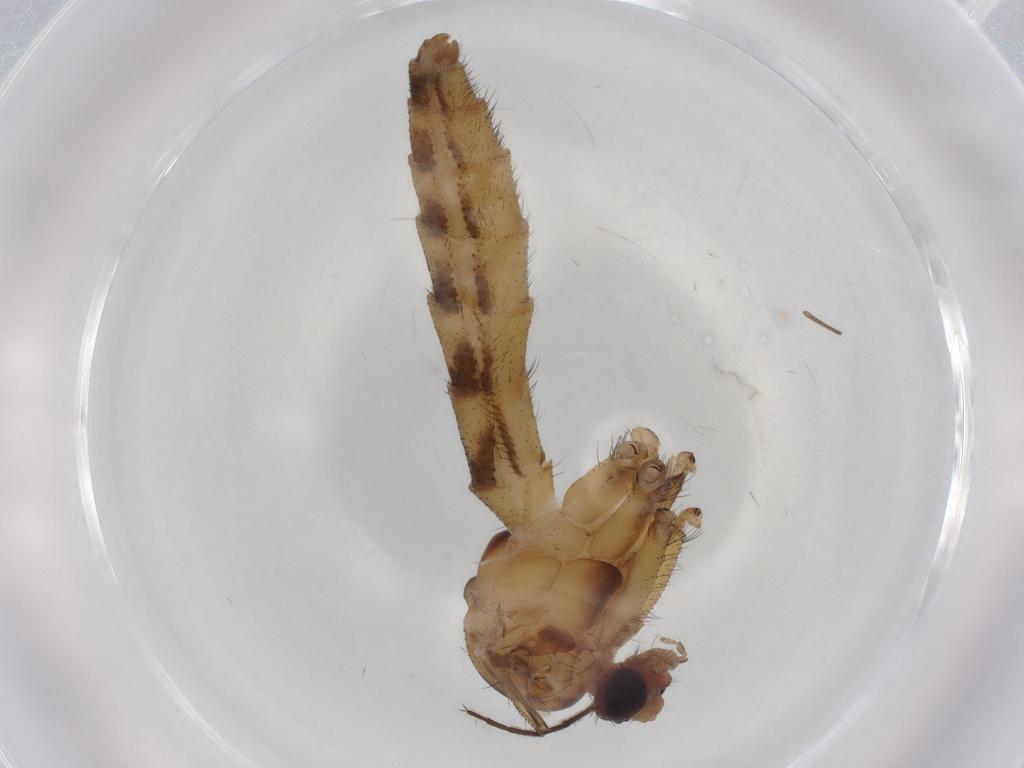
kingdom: Animalia
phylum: Arthropoda
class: Insecta
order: Diptera
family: Keroplatidae
